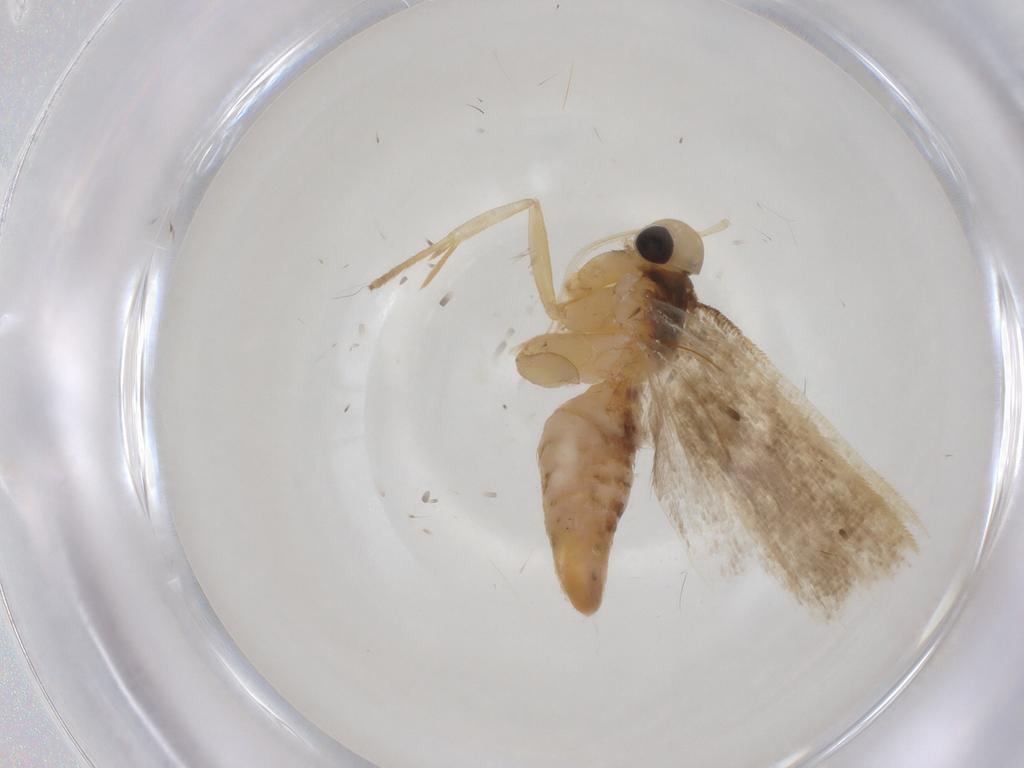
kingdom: Animalia
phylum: Arthropoda
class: Insecta
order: Lepidoptera
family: Gelechiidae
